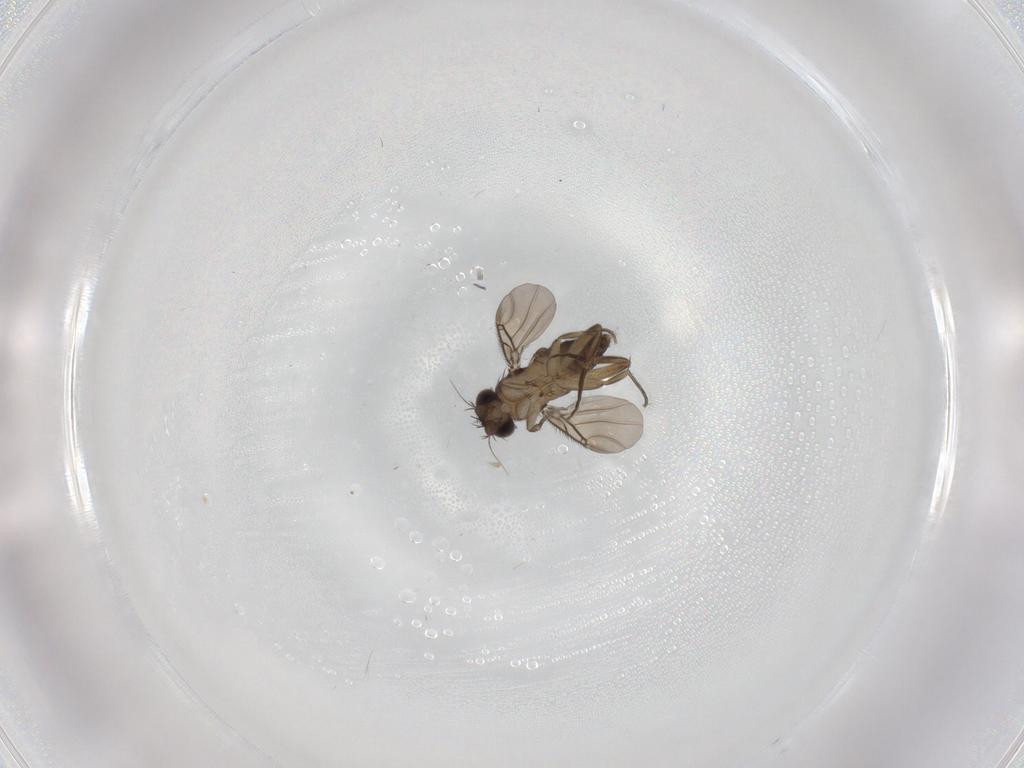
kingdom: Animalia
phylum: Arthropoda
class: Insecta
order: Diptera
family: Phoridae
